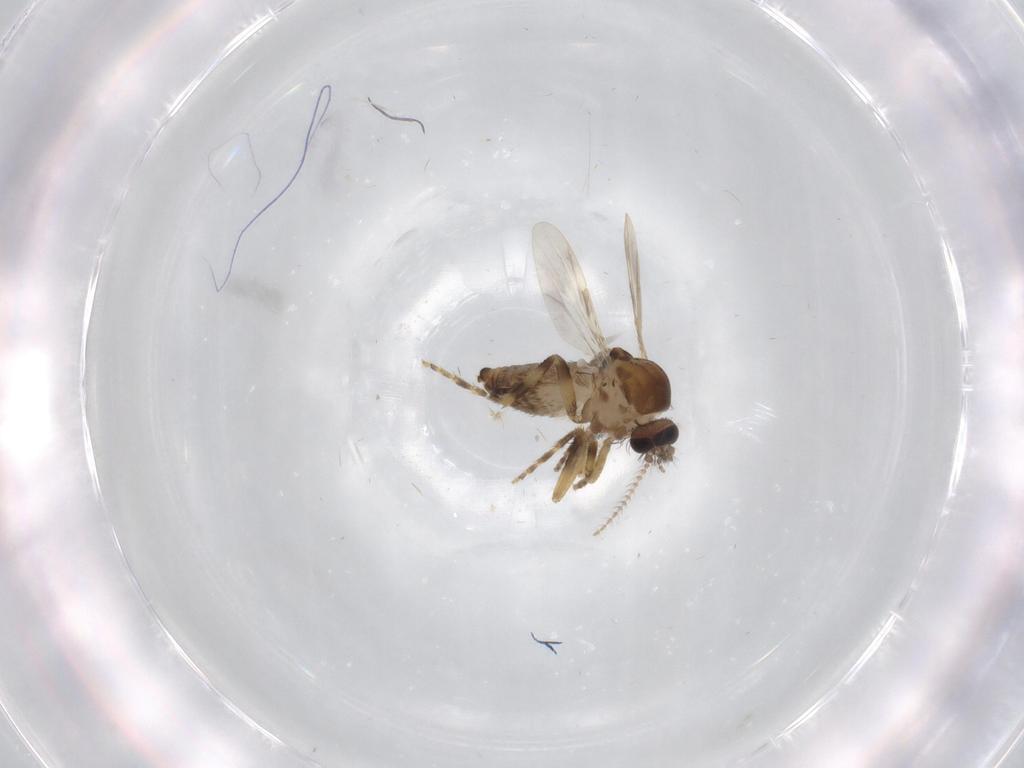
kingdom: Animalia
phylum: Arthropoda
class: Insecta
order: Diptera
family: Ceratopogonidae
